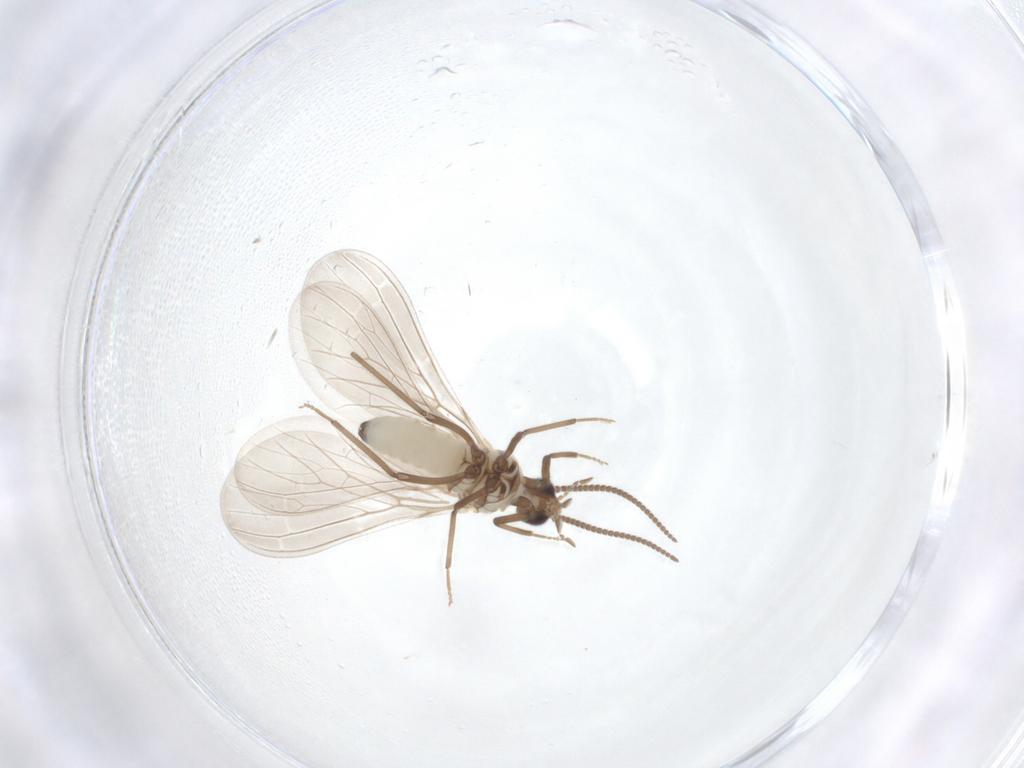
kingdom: Animalia
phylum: Arthropoda
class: Insecta
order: Neuroptera
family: Coniopterygidae
